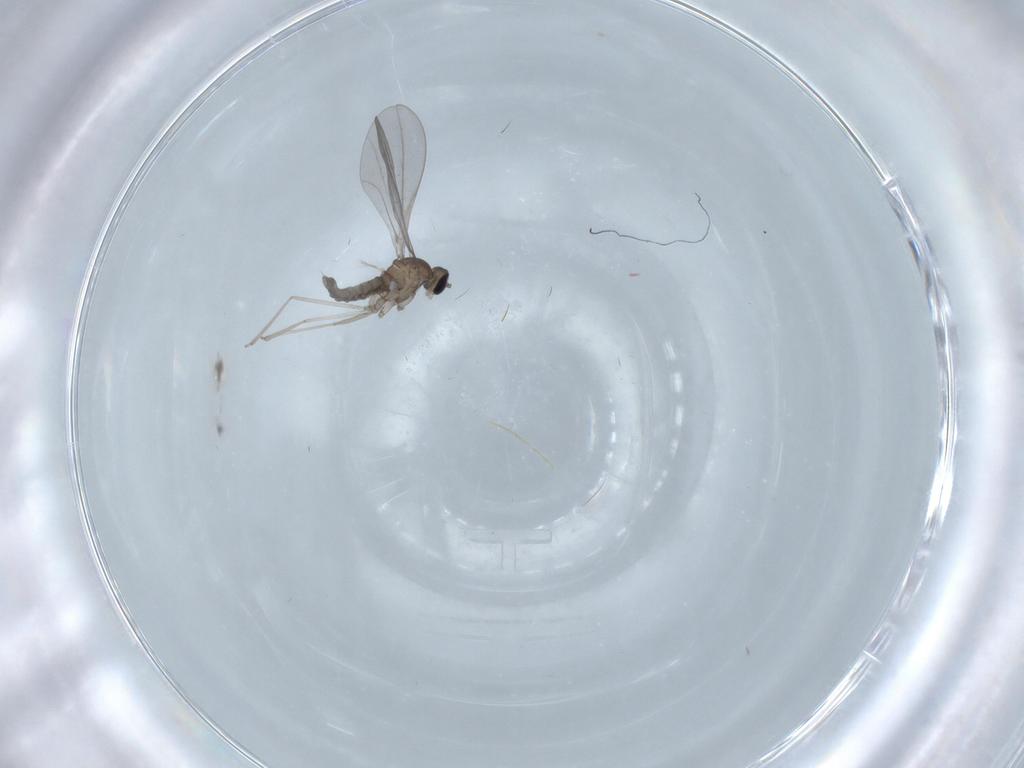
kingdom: Animalia
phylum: Arthropoda
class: Insecta
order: Diptera
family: Cecidomyiidae
